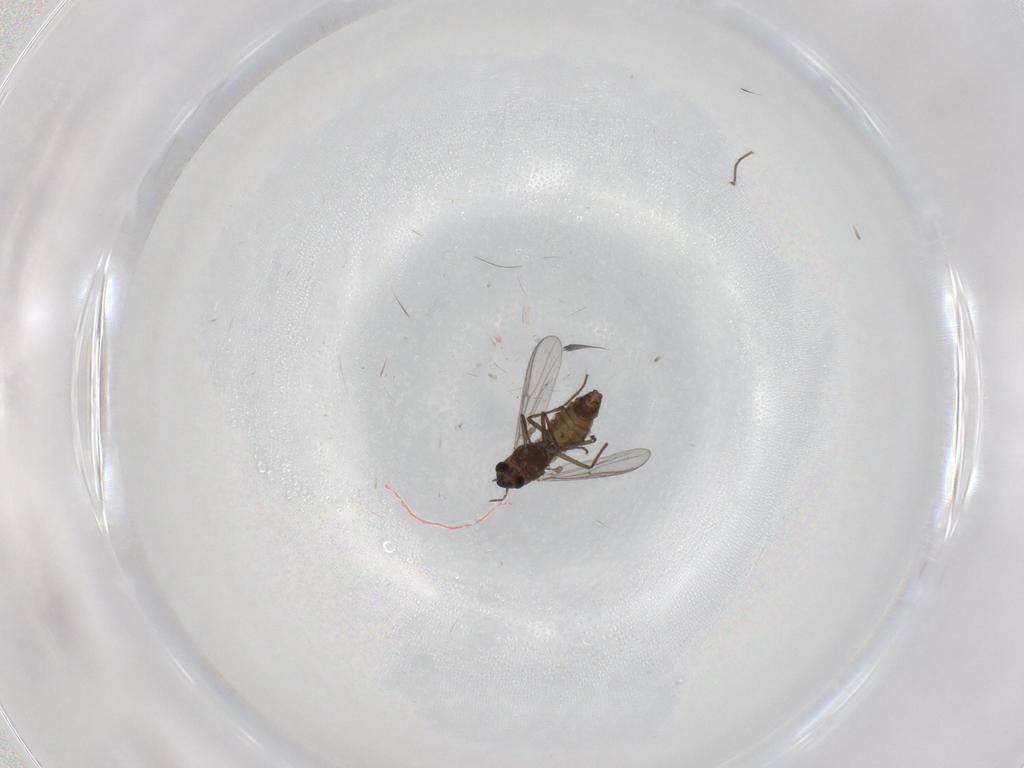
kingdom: Animalia
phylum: Arthropoda
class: Insecta
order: Diptera
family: Chironomidae
